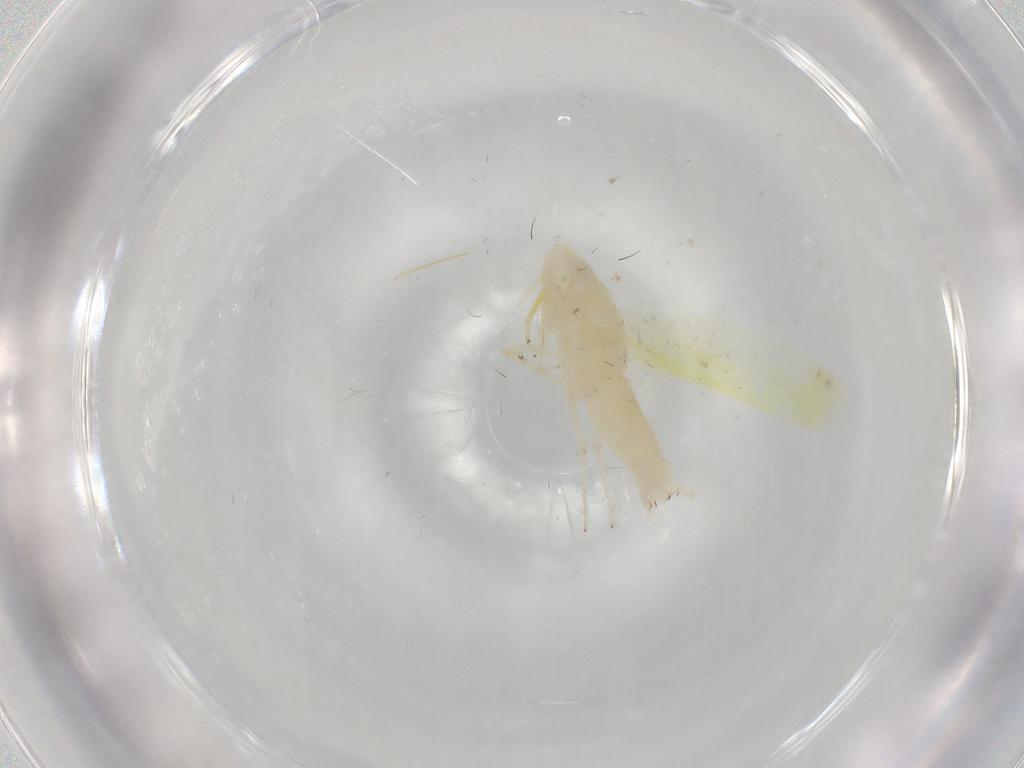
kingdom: Animalia
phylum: Arthropoda
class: Insecta
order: Hemiptera
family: Cicadellidae
